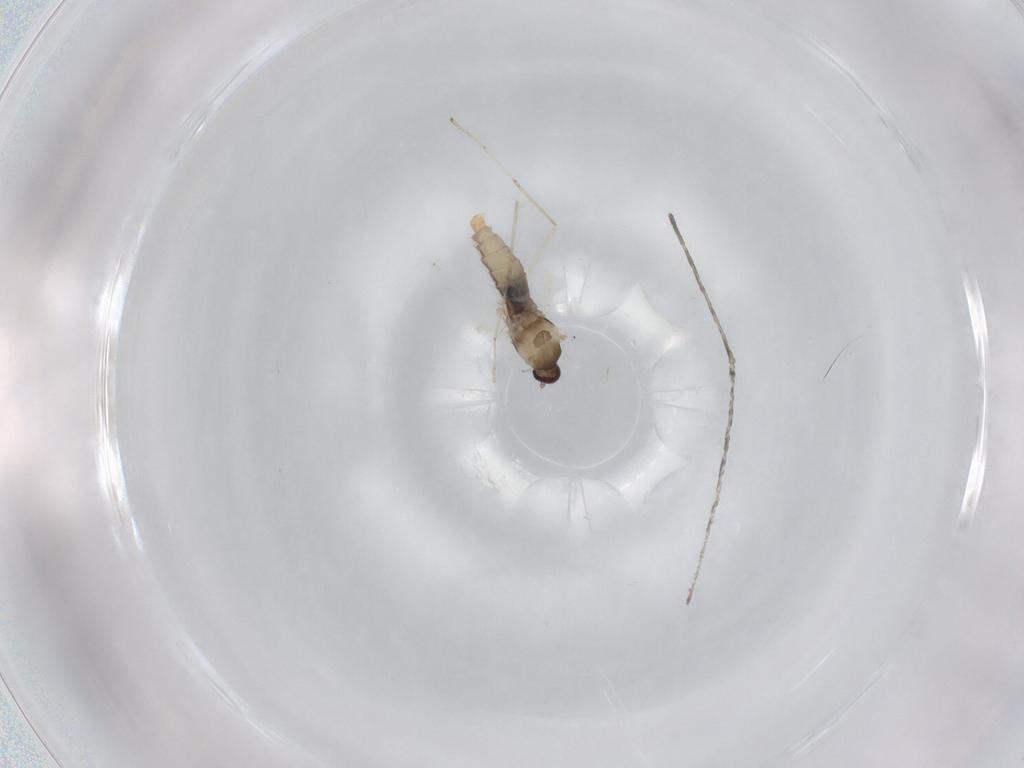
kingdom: Animalia
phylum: Arthropoda
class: Insecta
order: Diptera
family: Cecidomyiidae
